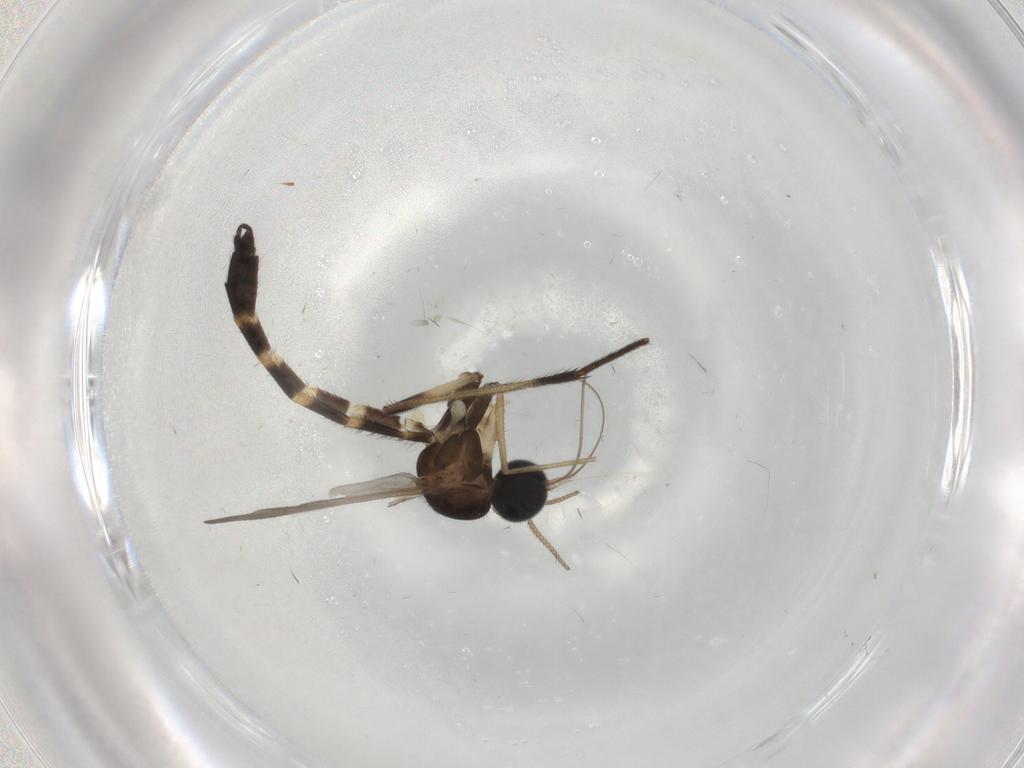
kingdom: Animalia
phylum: Arthropoda
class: Insecta
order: Diptera
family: Keroplatidae
